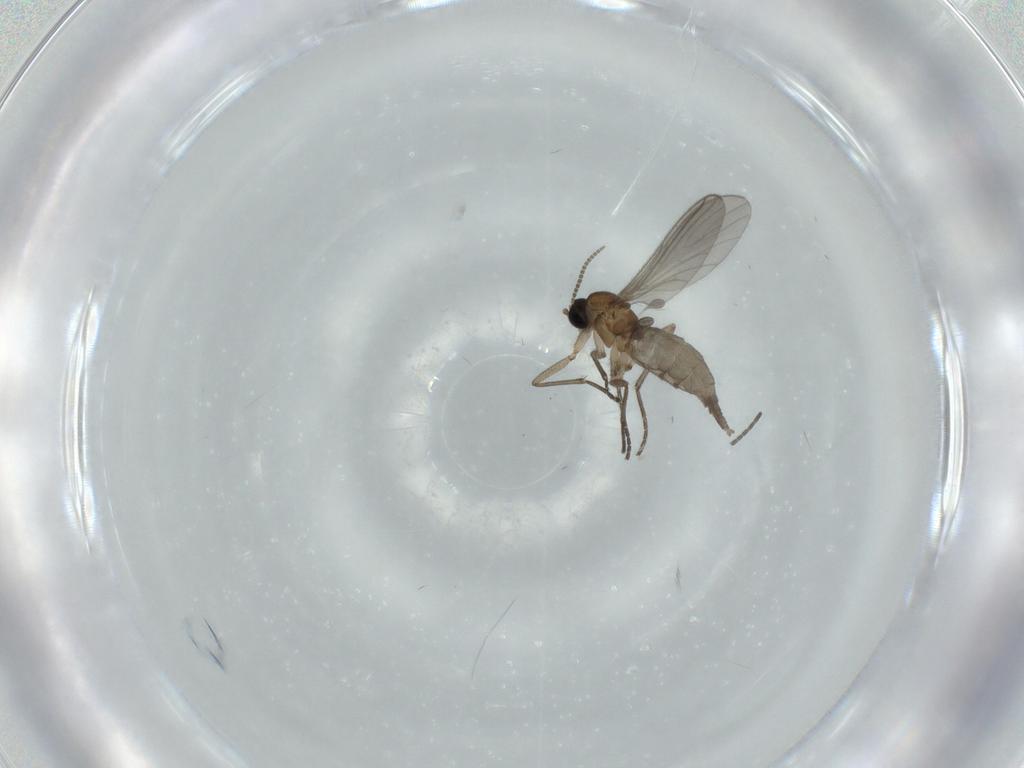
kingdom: Animalia
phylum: Arthropoda
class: Insecta
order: Diptera
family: Sciaridae
